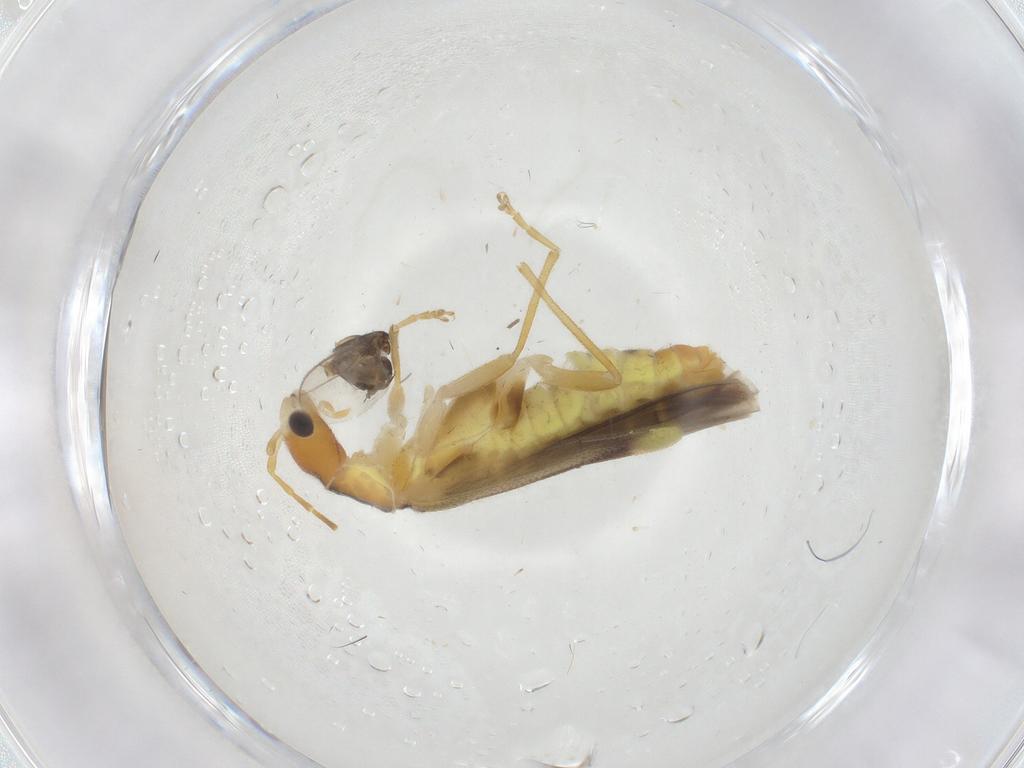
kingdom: Animalia
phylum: Arthropoda
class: Insecta
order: Coleoptera
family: Cantharidae
